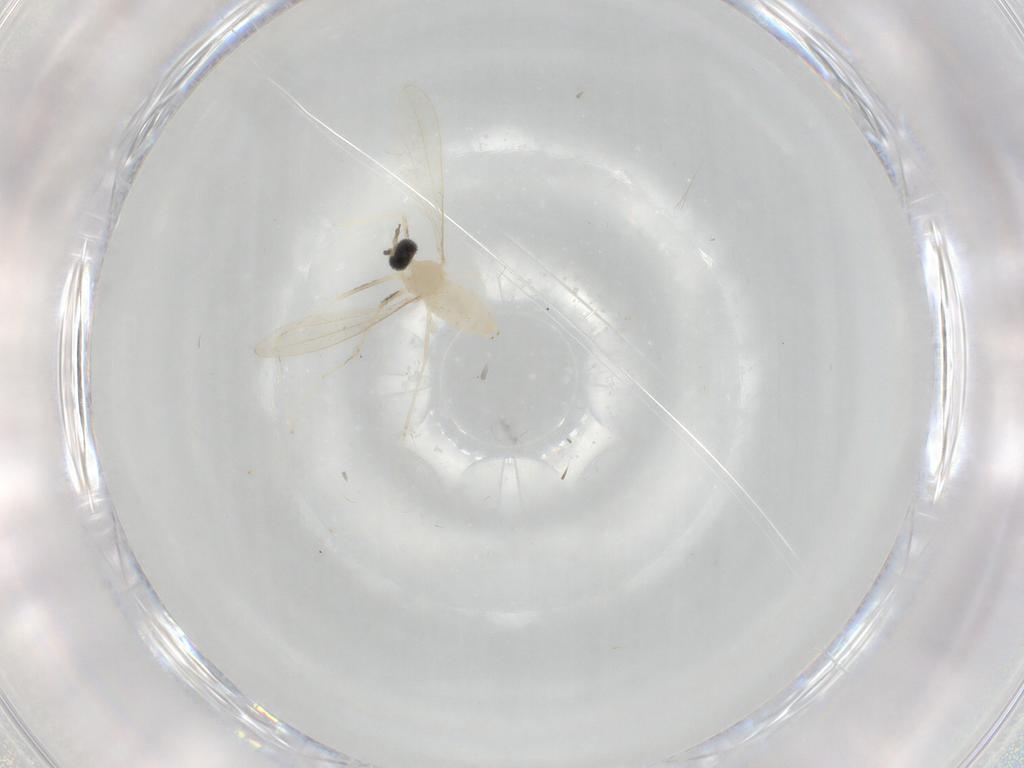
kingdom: Animalia
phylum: Arthropoda
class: Insecta
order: Diptera
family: Cecidomyiidae
